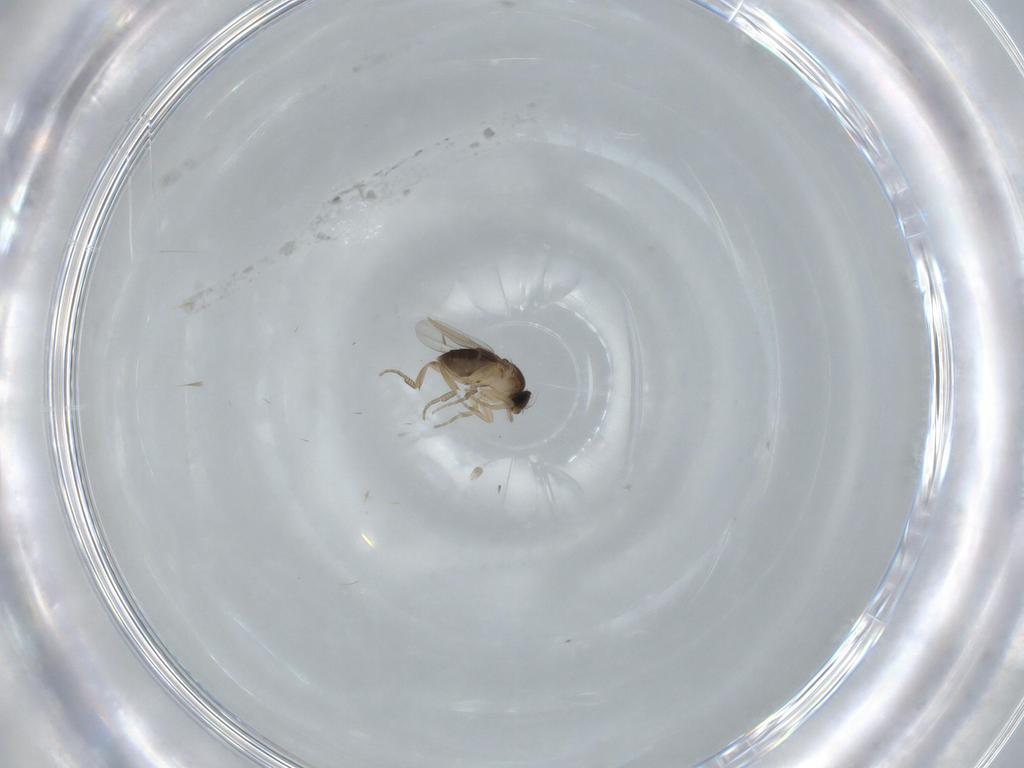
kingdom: Animalia
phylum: Arthropoda
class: Insecta
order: Diptera
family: Phoridae
